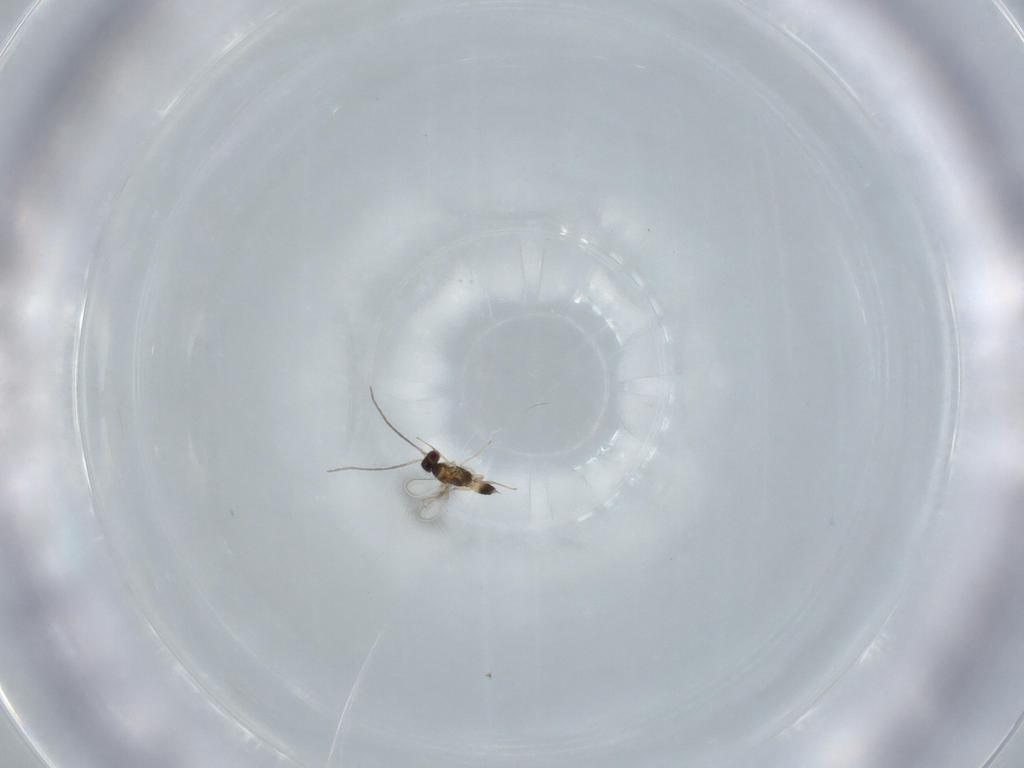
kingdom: Animalia
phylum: Arthropoda
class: Insecta
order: Hymenoptera
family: Mymaridae
